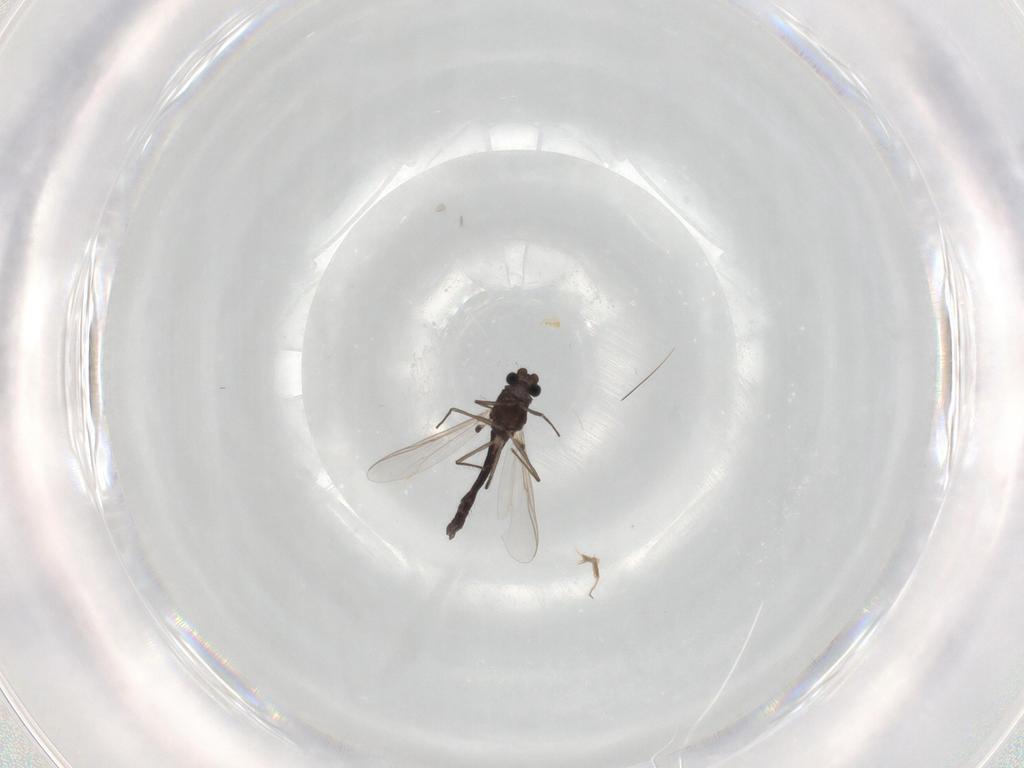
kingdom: Animalia
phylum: Arthropoda
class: Insecta
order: Diptera
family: Chironomidae
